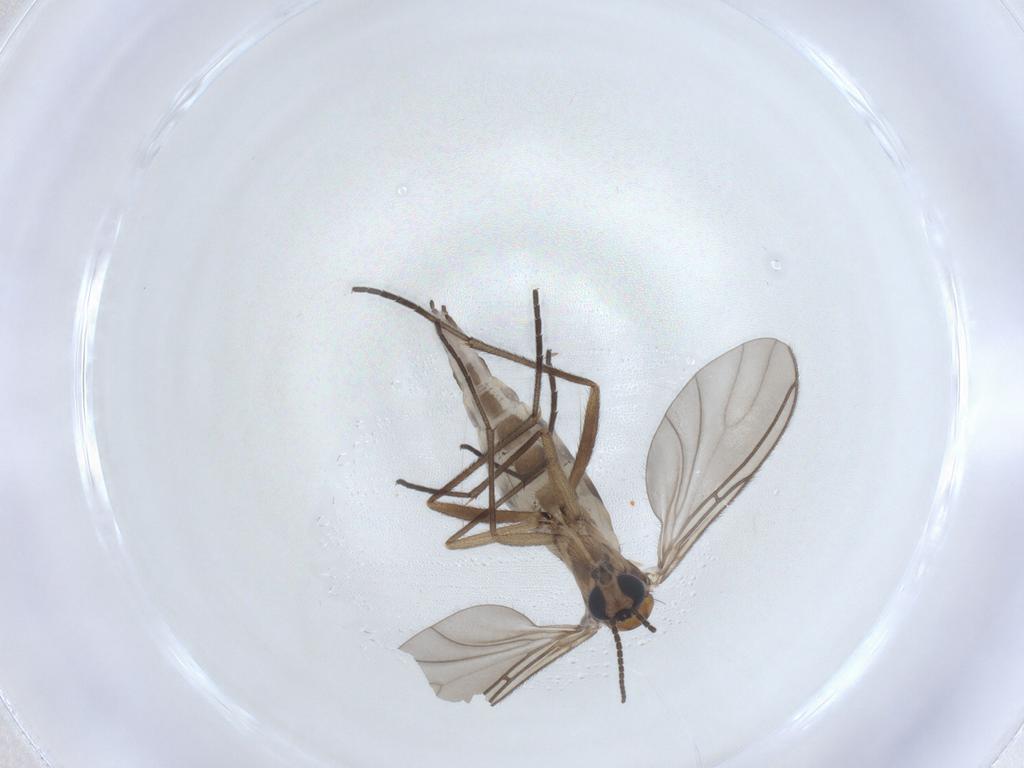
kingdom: Animalia
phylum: Arthropoda
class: Insecta
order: Diptera
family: Sciaridae
